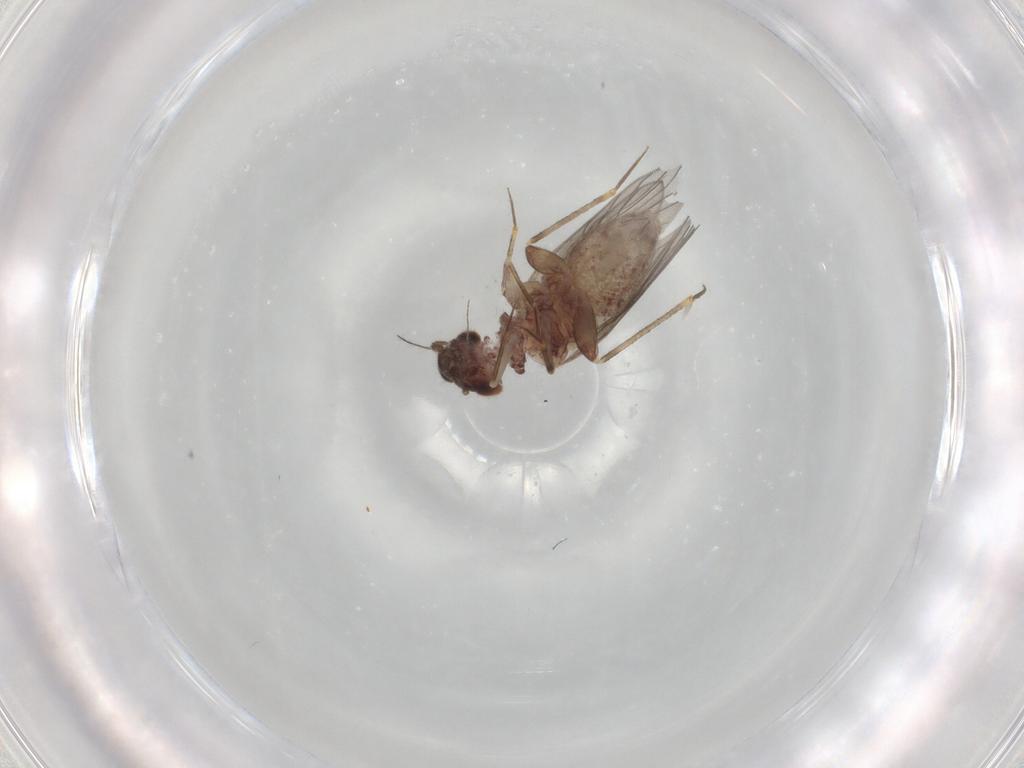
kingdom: Animalia
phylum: Arthropoda
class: Insecta
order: Psocodea
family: Lepidopsocidae
